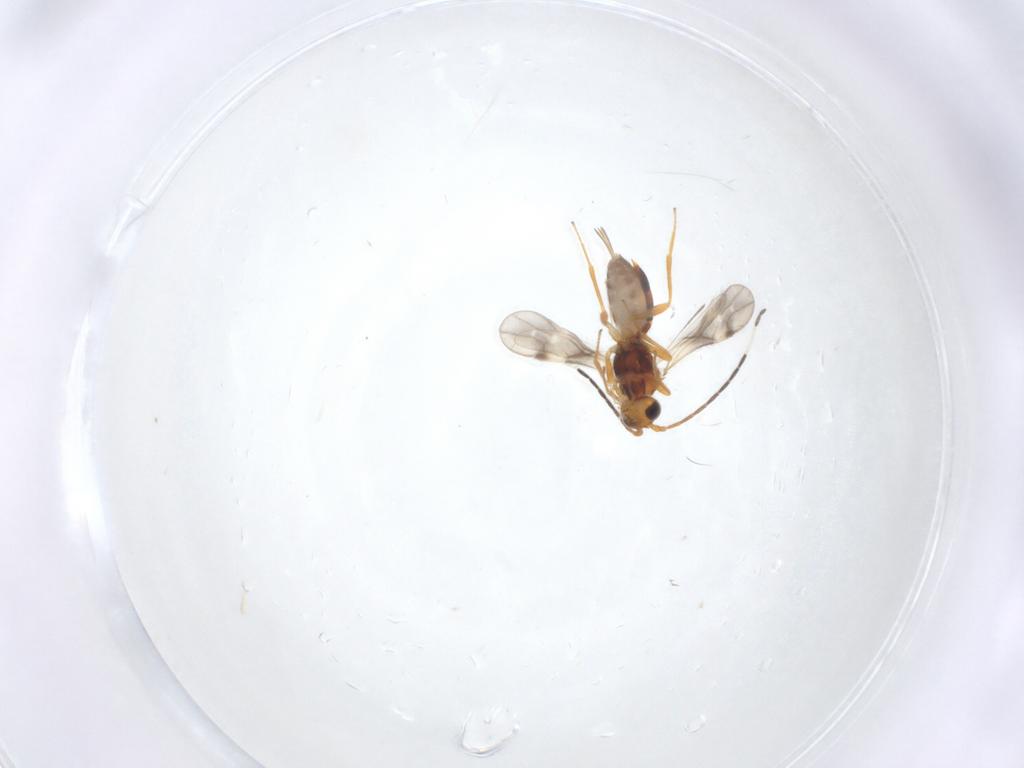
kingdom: Animalia
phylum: Arthropoda
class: Insecta
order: Hymenoptera
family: Braconidae
